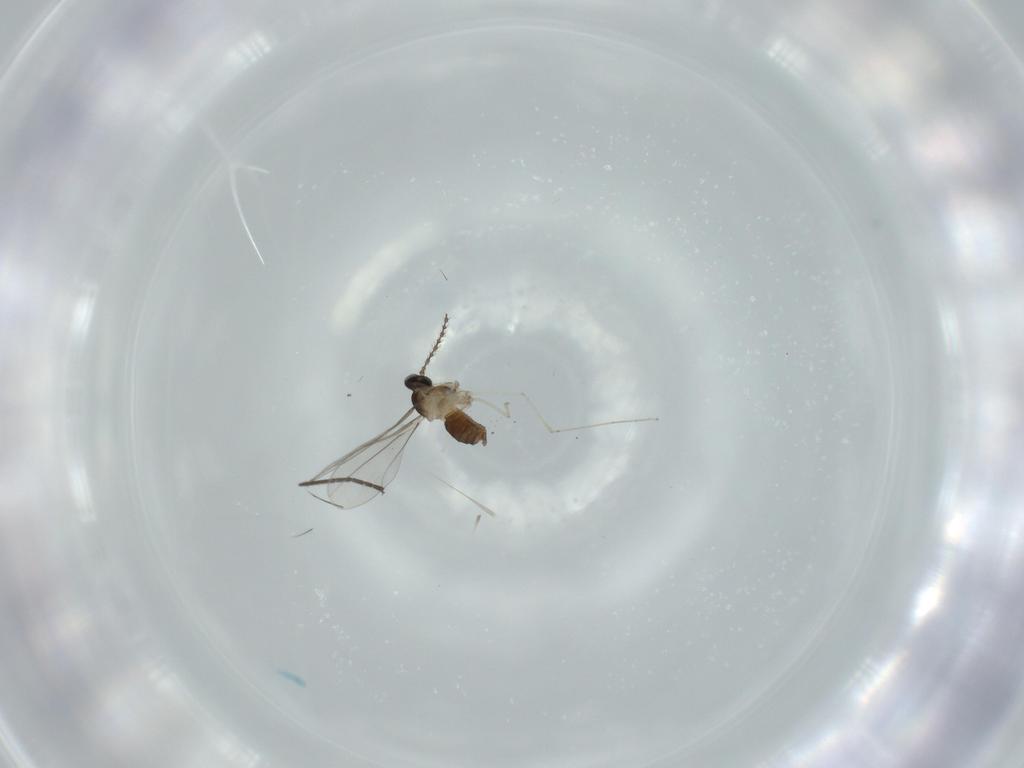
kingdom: Animalia
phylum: Arthropoda
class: Insecta
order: Diptera
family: Cecidomyiidae
